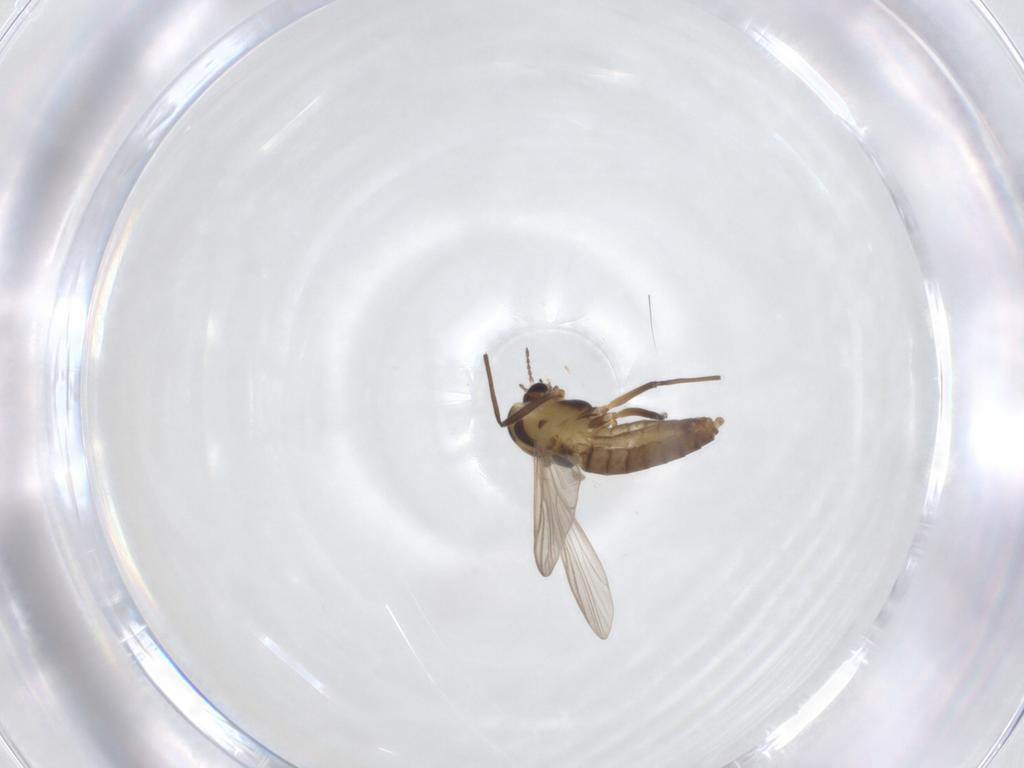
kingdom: Animalia
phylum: Arthropoda
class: Insecta
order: Diptera
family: Chironomidae
